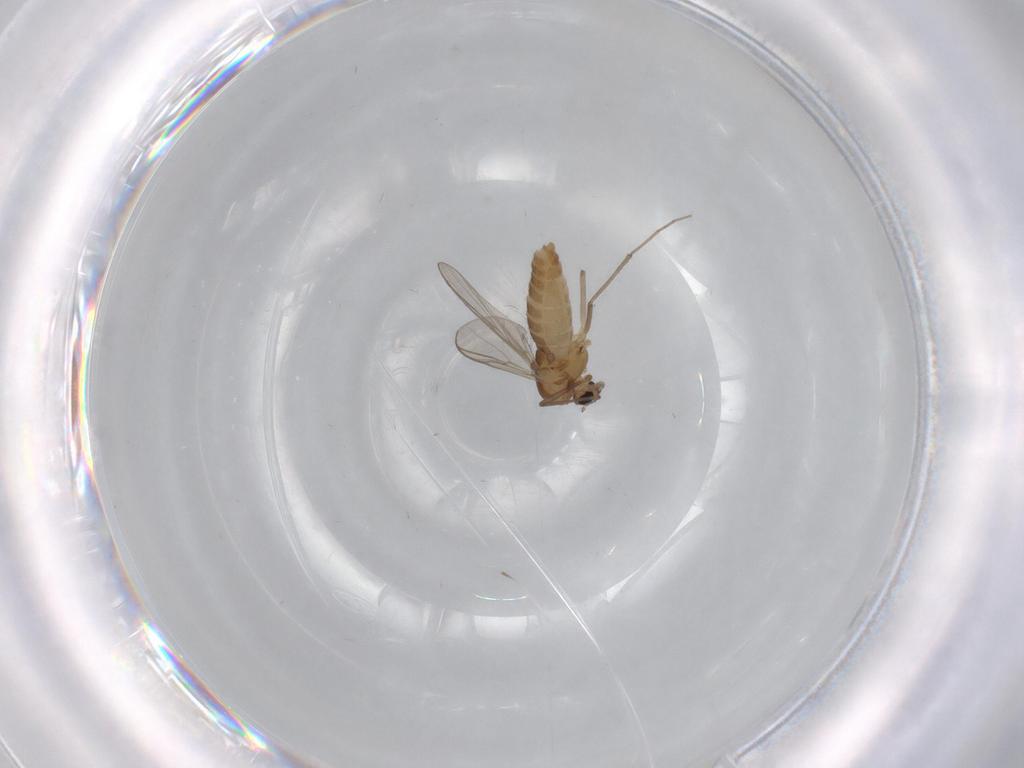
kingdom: Animalia
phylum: Arthropoda
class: Insecta
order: Diptera
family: Chironomidae
